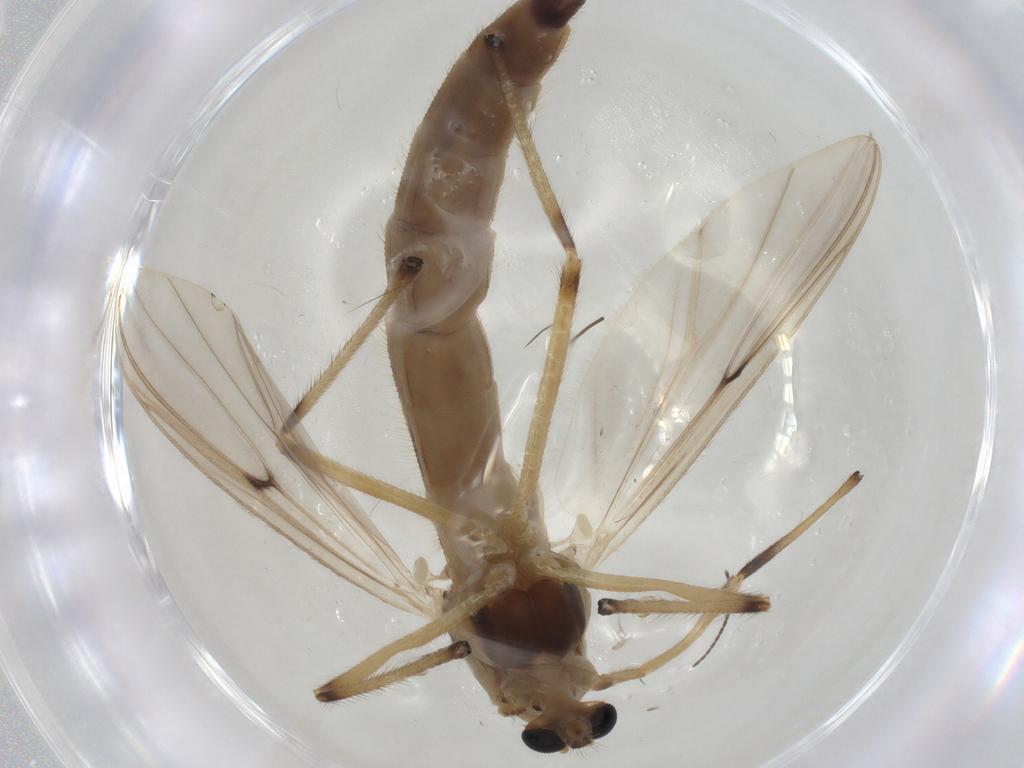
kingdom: Animalia
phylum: Arthropoda
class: Insecta
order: Diptera
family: Chironomidae
